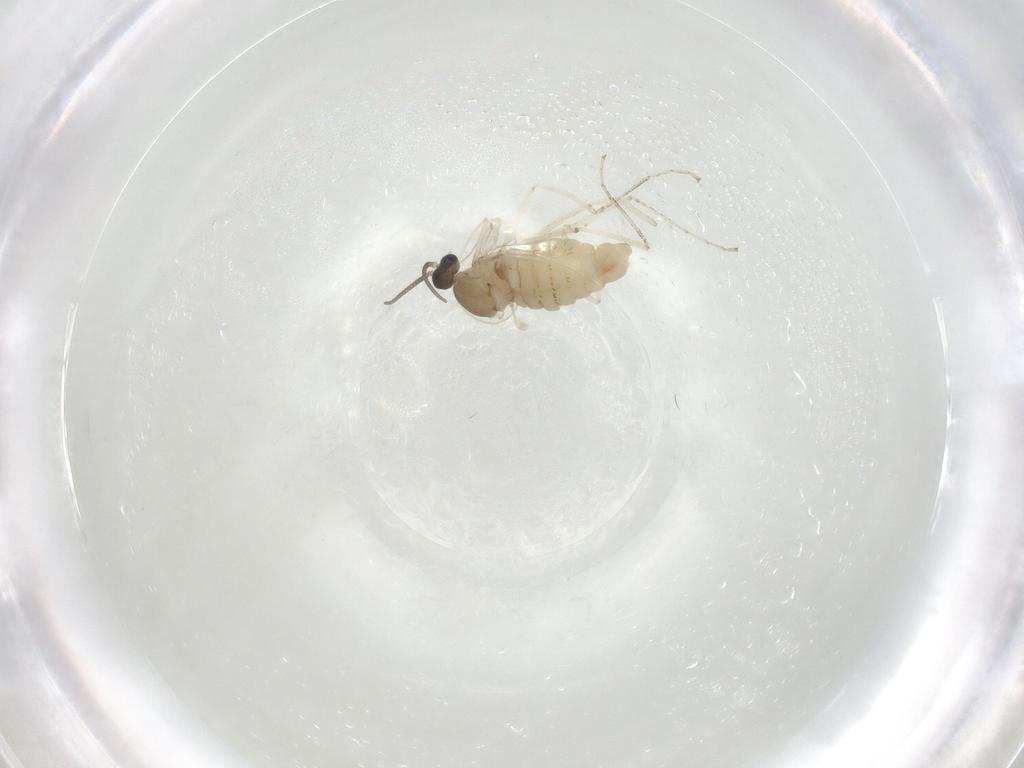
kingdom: Animalia
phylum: Arthropoda
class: Insecta
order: Diptera
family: Cecidomyiidae
